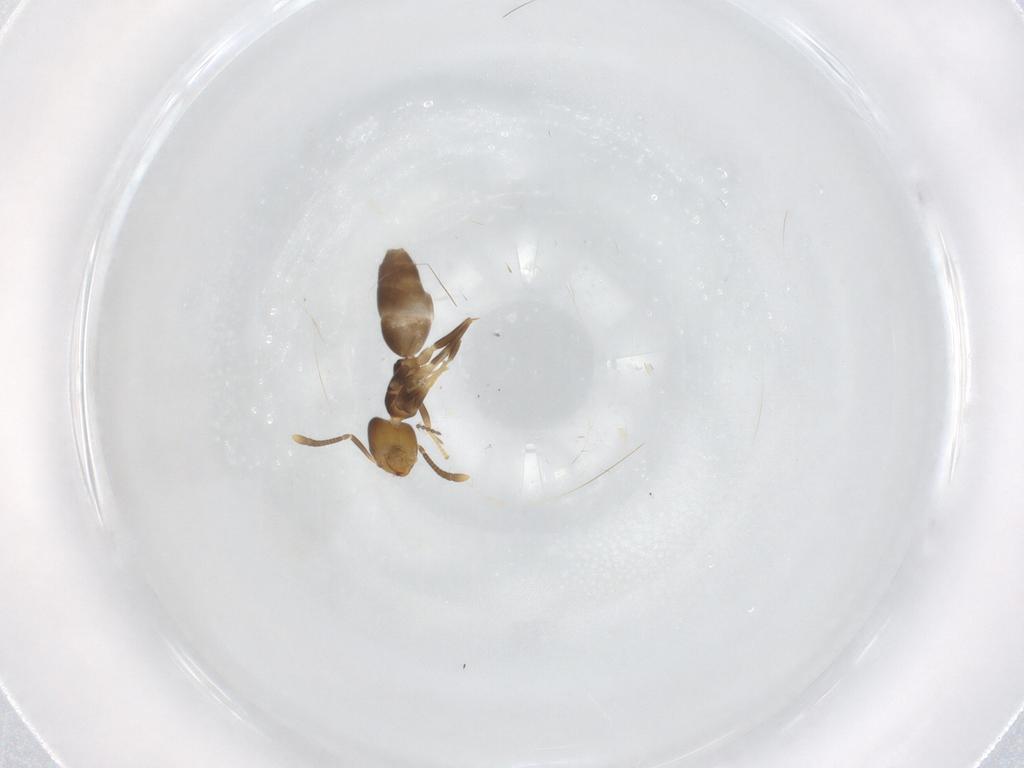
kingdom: Animalia
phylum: Arthropoda
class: Insecta
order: Hymenoptera
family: Formicidae
